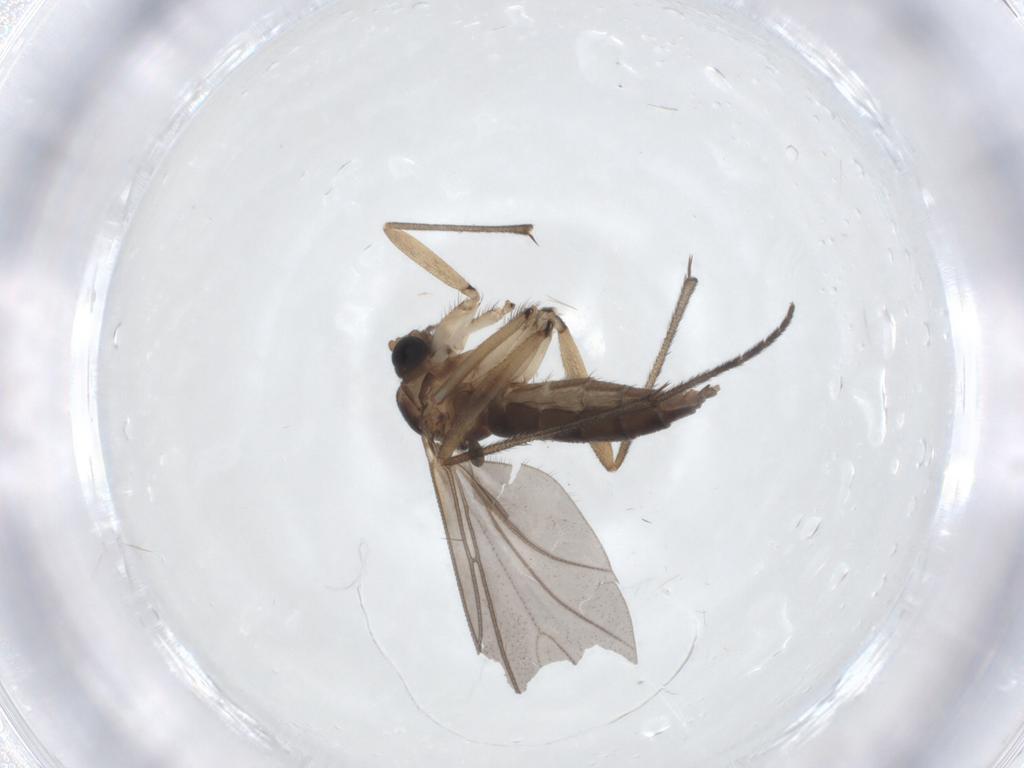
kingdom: Animalia
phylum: Arthropoda
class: Insecta
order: Diptera
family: Sciaridae
